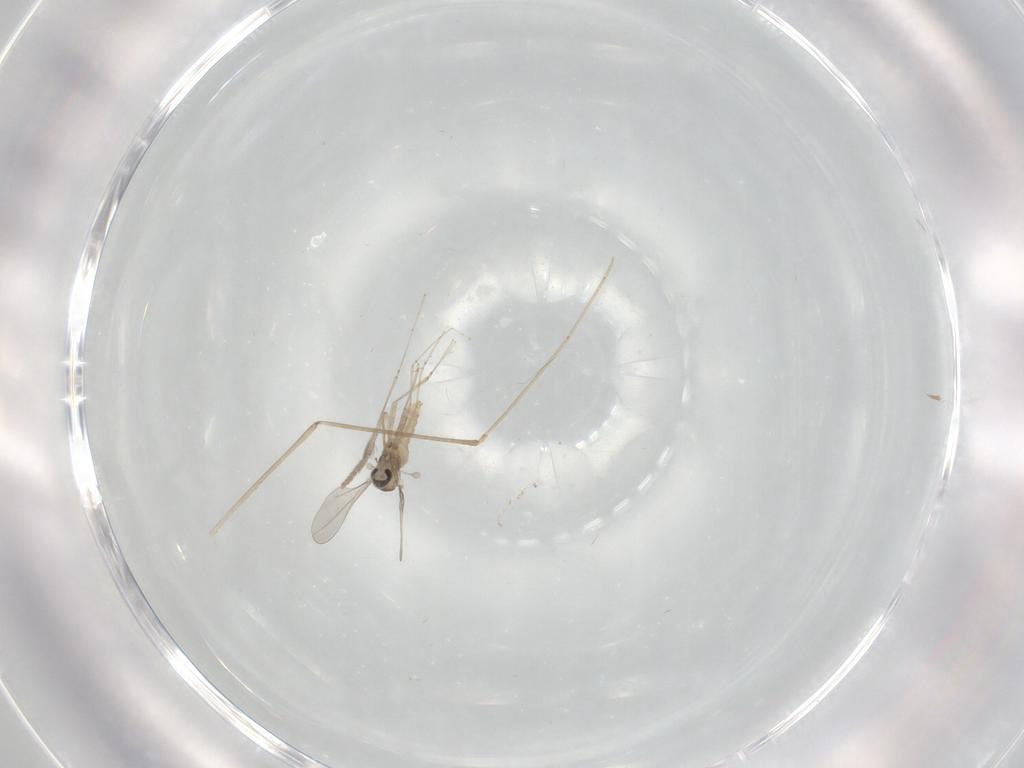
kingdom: Animalia
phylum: Arthropoda
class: Insecta
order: Diptera
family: Cecidomyiidae
